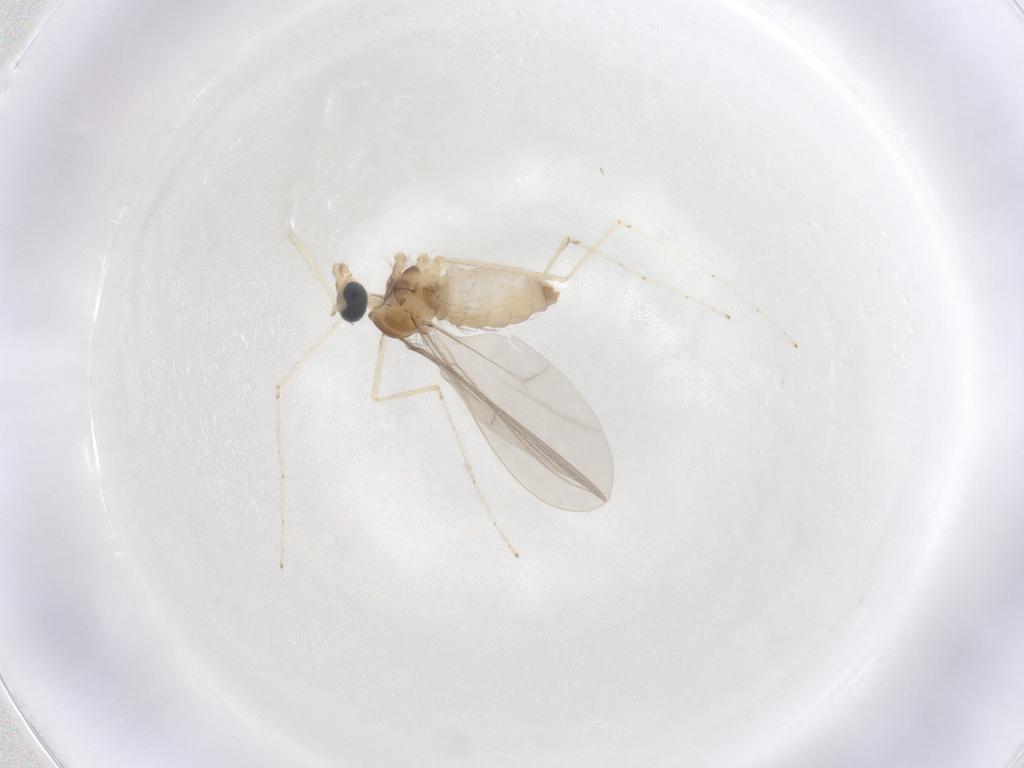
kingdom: Animalia
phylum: Arthropoda
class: Insecta
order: Diptera
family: Cecidomyiidae
